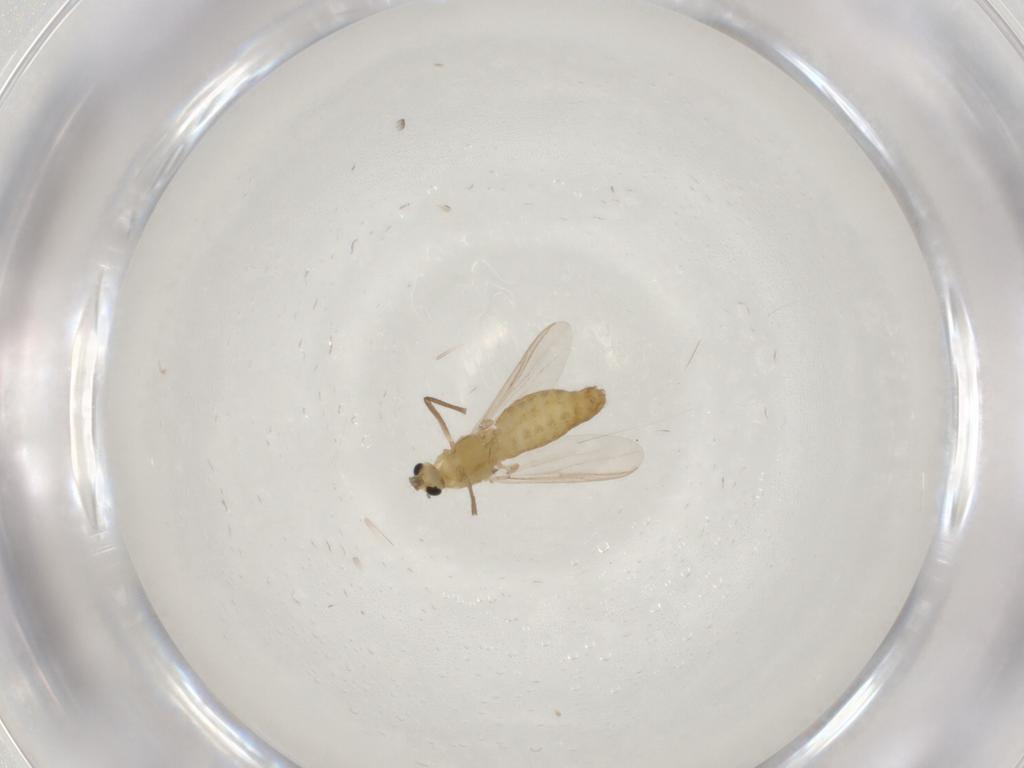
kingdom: Animalia
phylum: Arthropoda
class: Insecta
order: Diptera
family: Chironomidae
